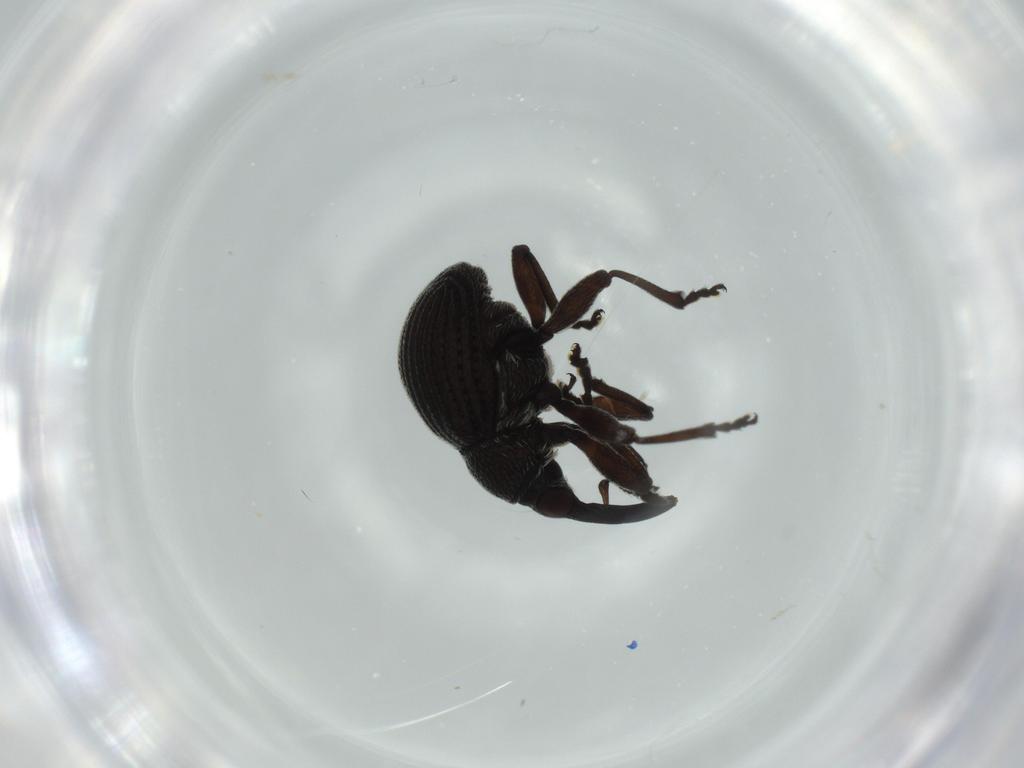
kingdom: Animalia
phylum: Arthropoda
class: Insecta
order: Coleoptera
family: Brentidae
